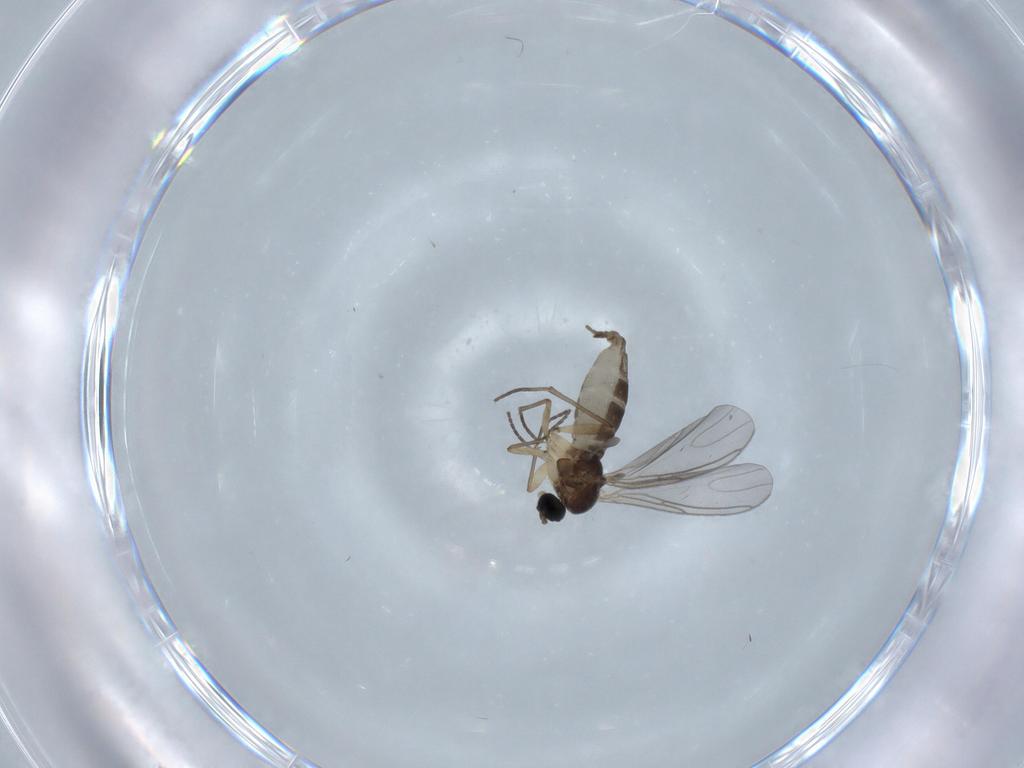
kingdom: Animalia
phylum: Arthropoda
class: Insecta
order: Diptera
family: Sciaridae
